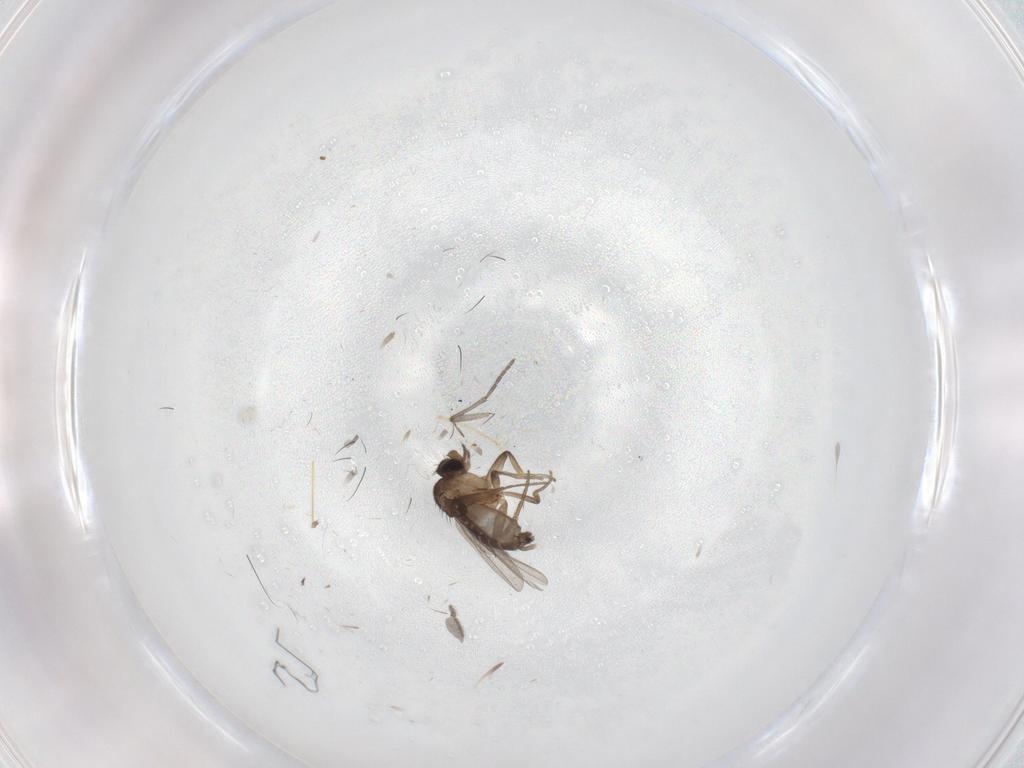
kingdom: Animalia
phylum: Arthropoda
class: Insecta
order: Diptera
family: Sciaridae
